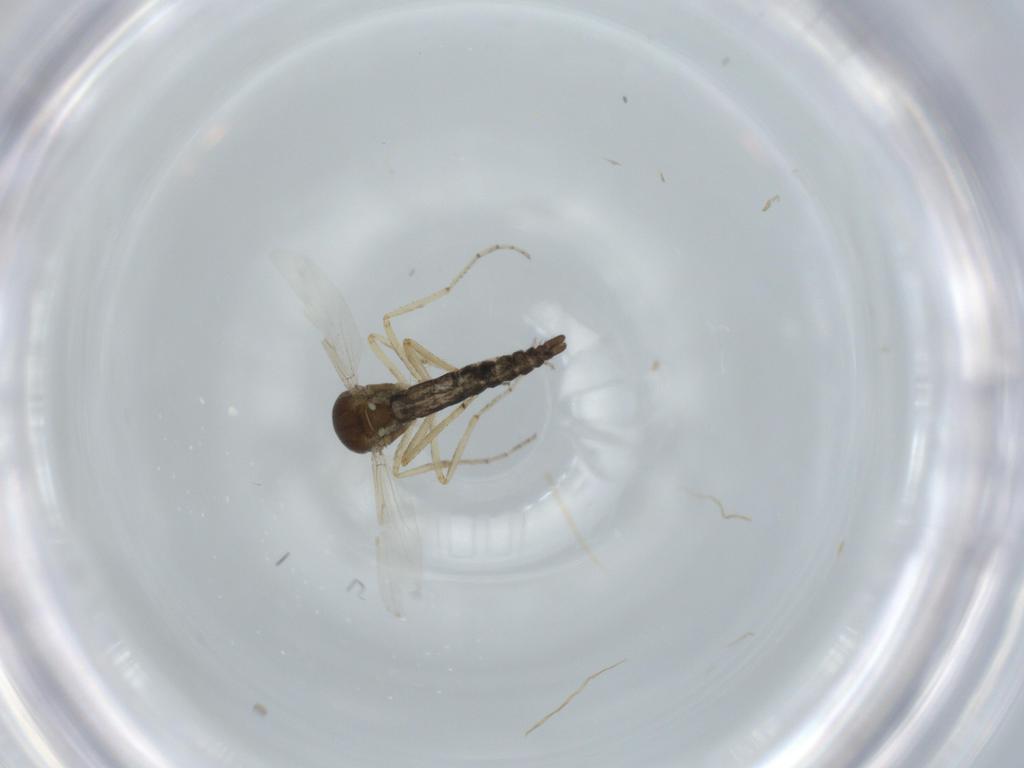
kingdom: Animalia
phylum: Arthropoda
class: Insecta
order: Diptera
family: Ceratopogonidae
